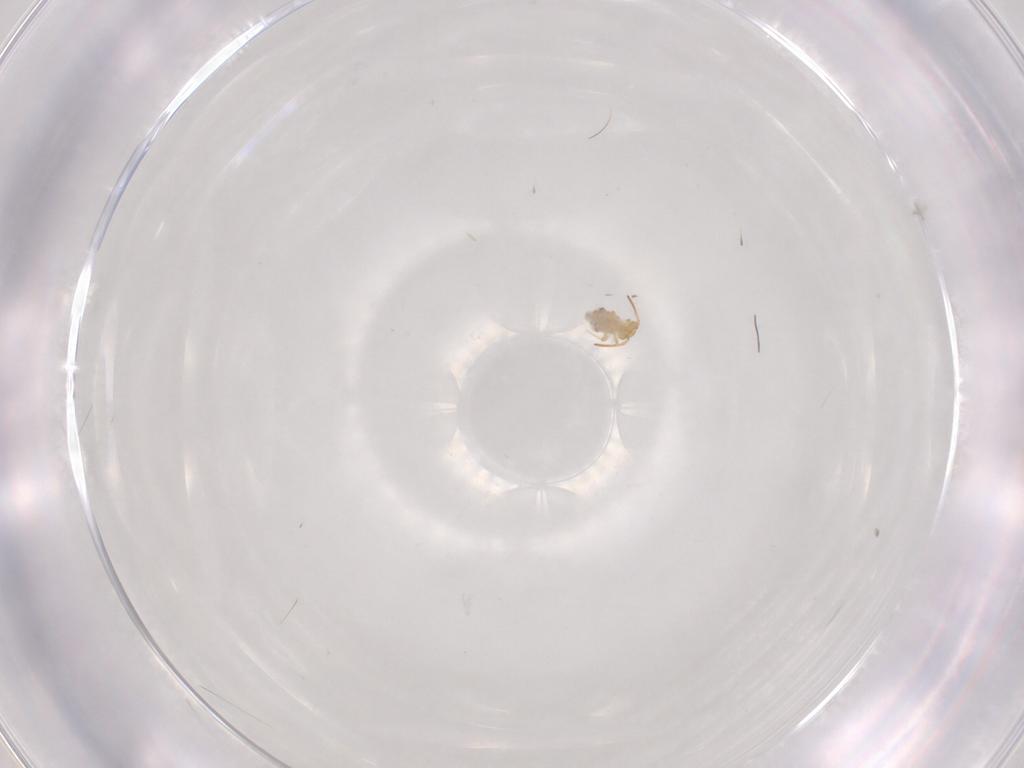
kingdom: Animalia
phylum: Arthropoda
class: Collembola
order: Symphypleona
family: Bourletiellidae
